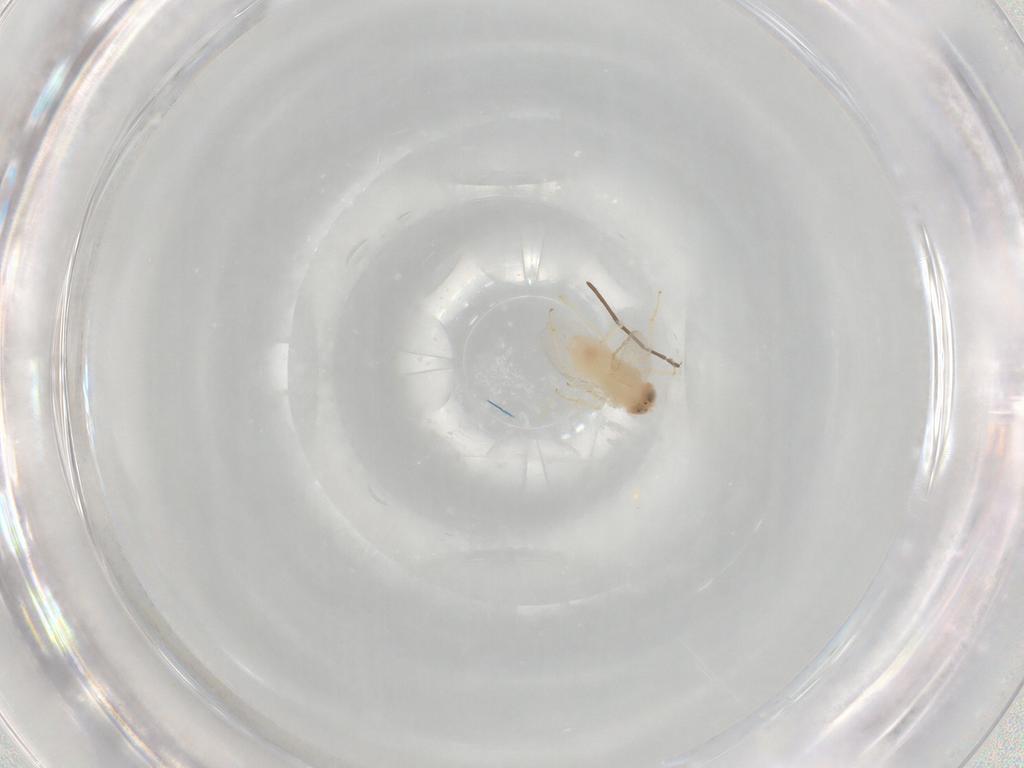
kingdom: Animalia
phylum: Arthropoda
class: Insecta
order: Hymenoptera
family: Aphelinidae
